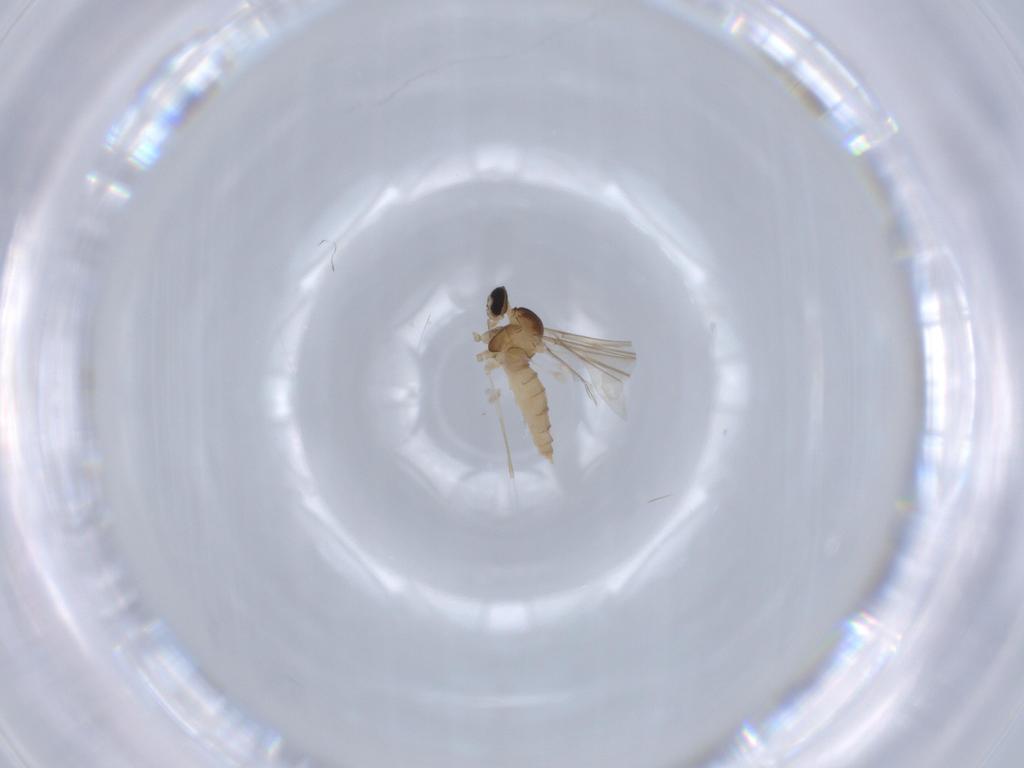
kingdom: Animalia
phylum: Arthropoda
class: Insecta
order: Diptera
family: Cecidomyiidae
